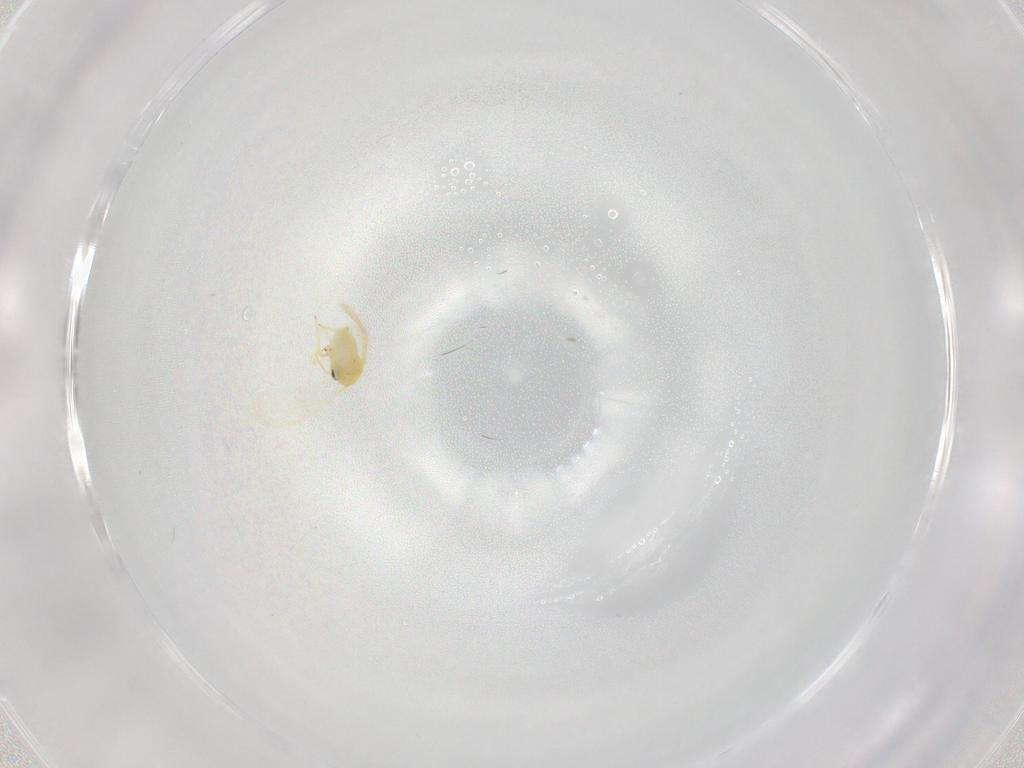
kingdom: Animalia
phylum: Arthropoda
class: Insecta
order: Hemiptera
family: Aleyrodidae
